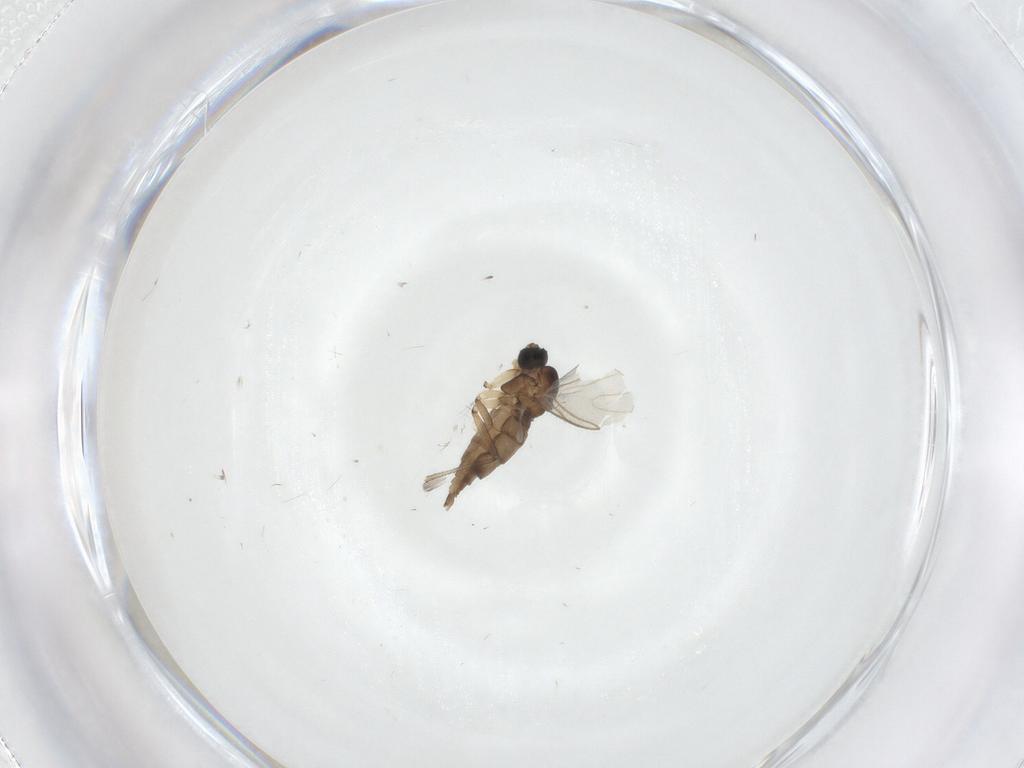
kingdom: Animalia
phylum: Arthropoda
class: Insecta
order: Diptera
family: Sciaridae
